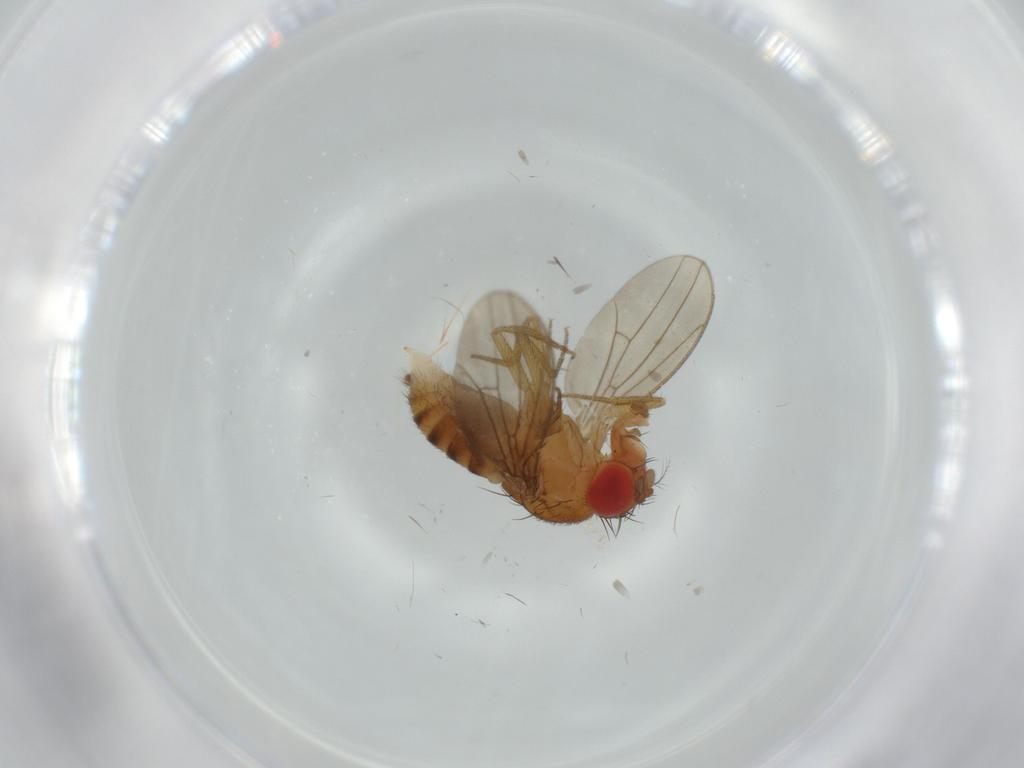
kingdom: Animalia
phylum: Arthropoda
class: Insecta
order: Diptera
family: Drosophilidae
